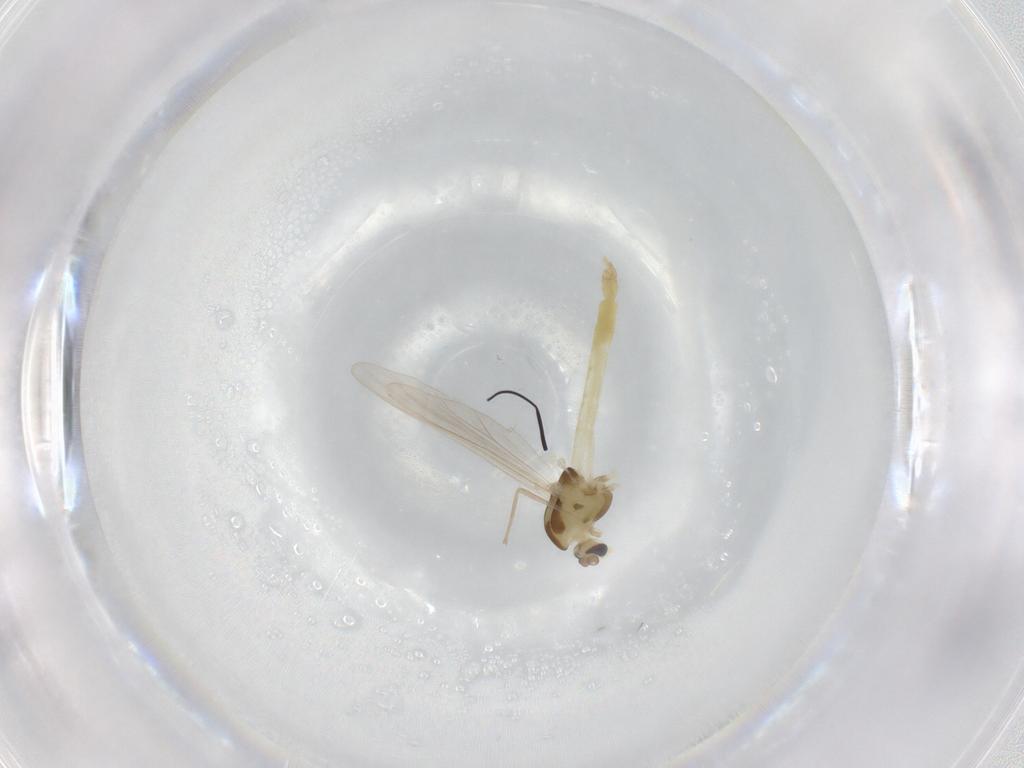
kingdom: Animalia
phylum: Arthropoda
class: Insecta
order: Diptera
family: Chironomidae
